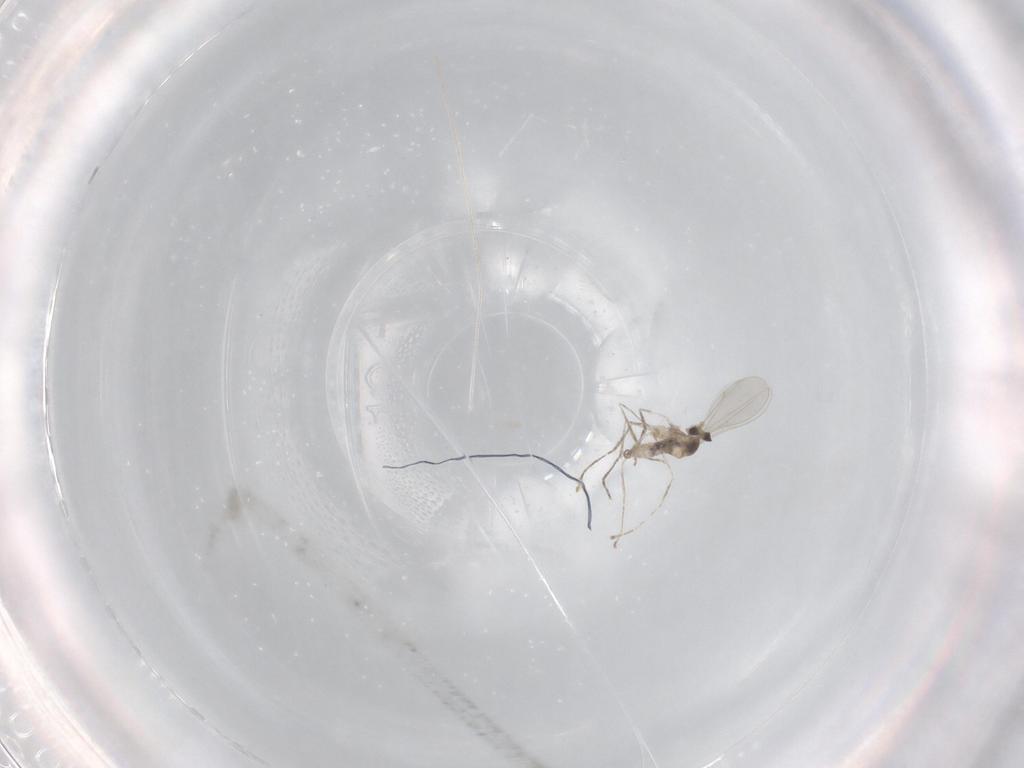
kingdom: Animalia
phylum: Arthropoda
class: Insecta
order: Diptera
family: Cecidomyiidae
